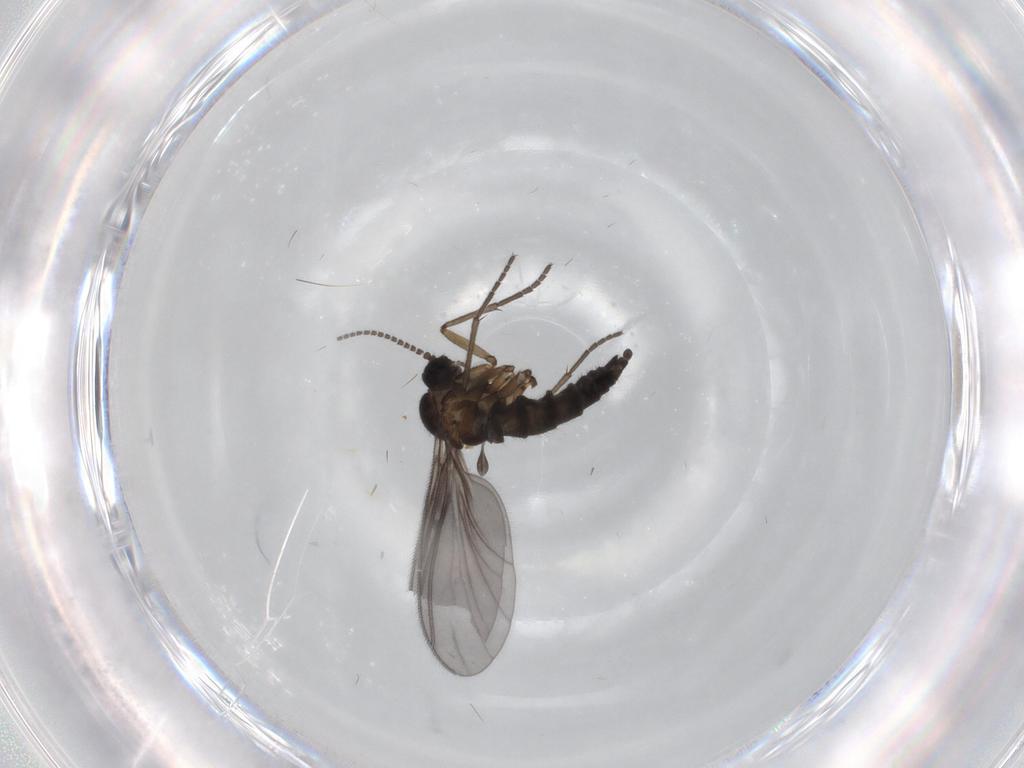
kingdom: Animalia
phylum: Arthropoda
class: Insecta
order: Diptera
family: Sciaridae
